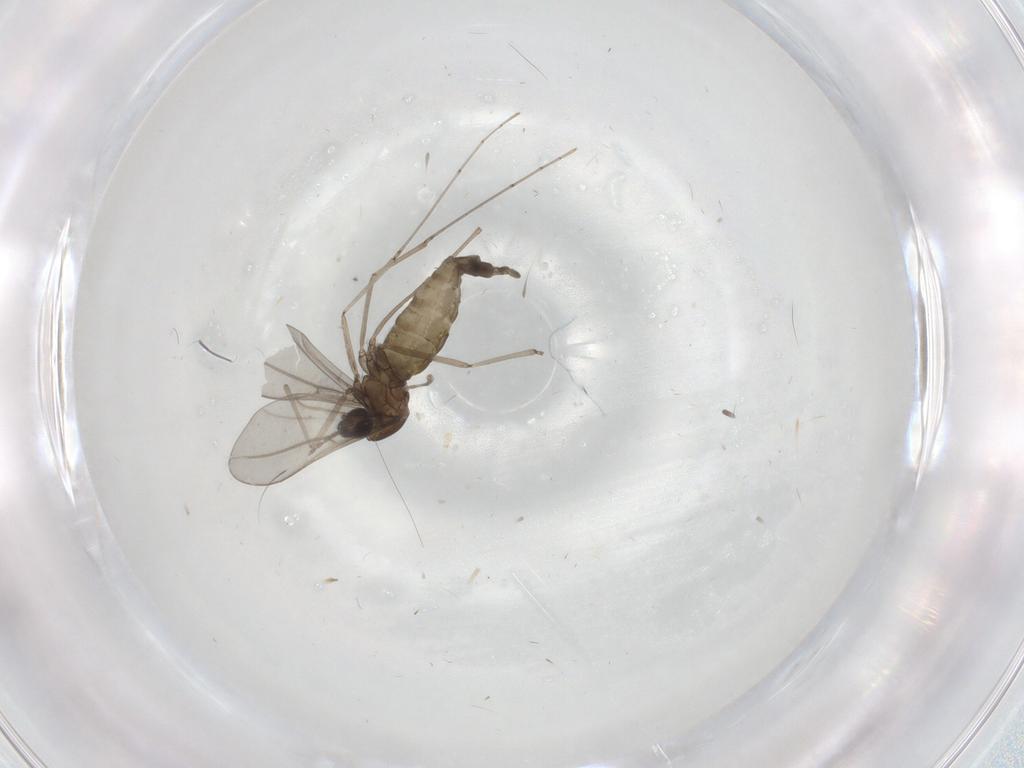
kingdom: Animalia
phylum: Arthropoda
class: Insecta
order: Diptera
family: Cecidomyiidae
